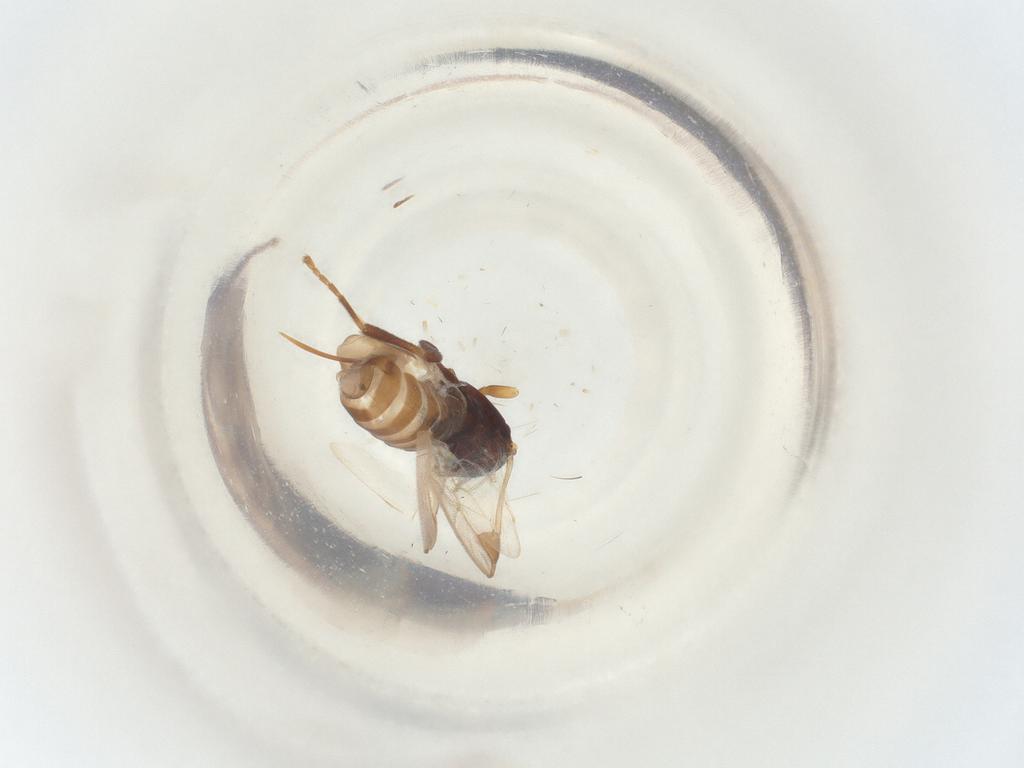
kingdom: Animalia
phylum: Arthropoda
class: Insecta
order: Hymenoptera
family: Braconidae
